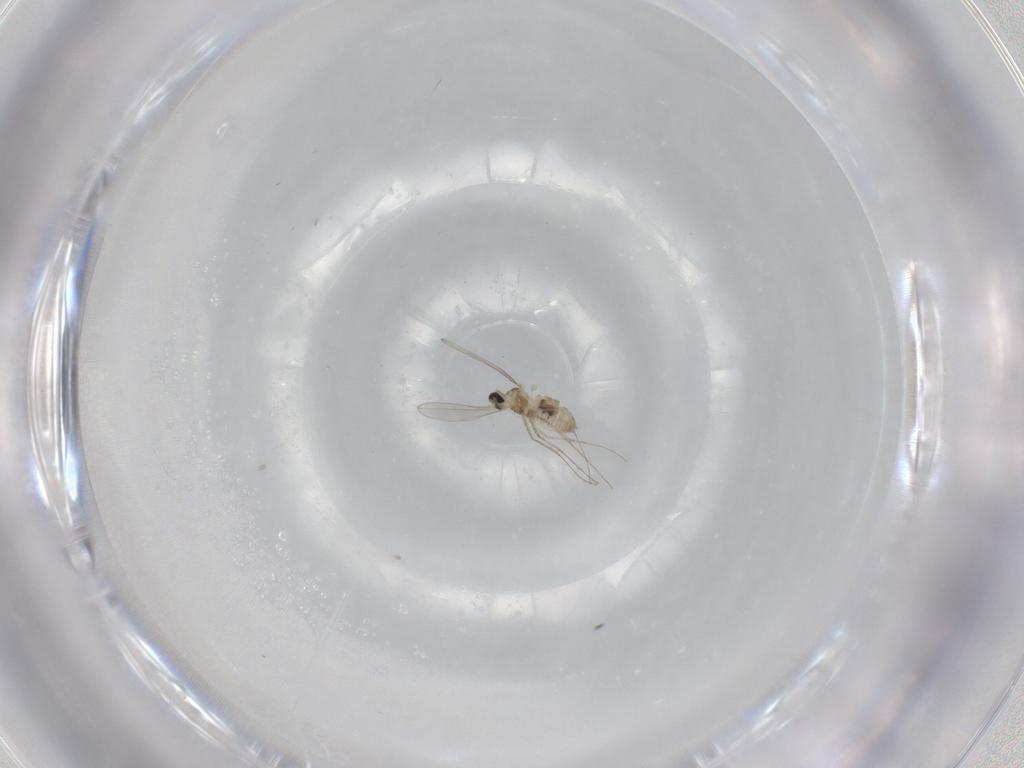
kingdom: Animalia
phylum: Arthropoda
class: Insecta
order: Diptera
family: Cecidomyiidae
